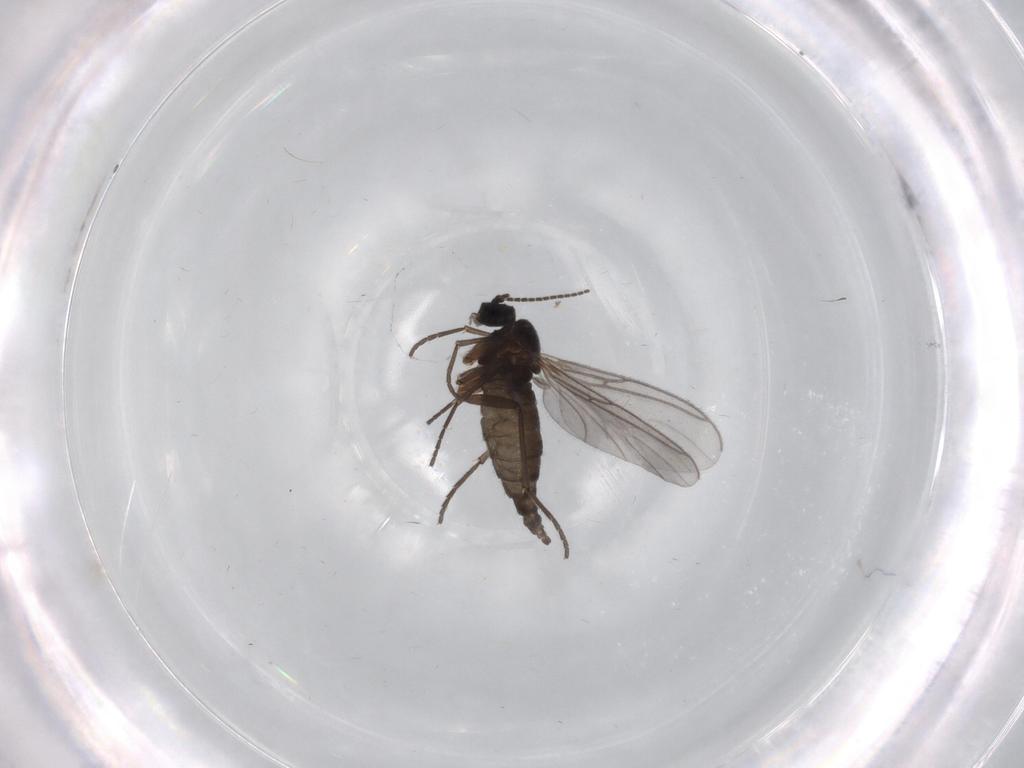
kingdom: Animalia
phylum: Arthropoda
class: Insecta
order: Diptera
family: Sciaridae
